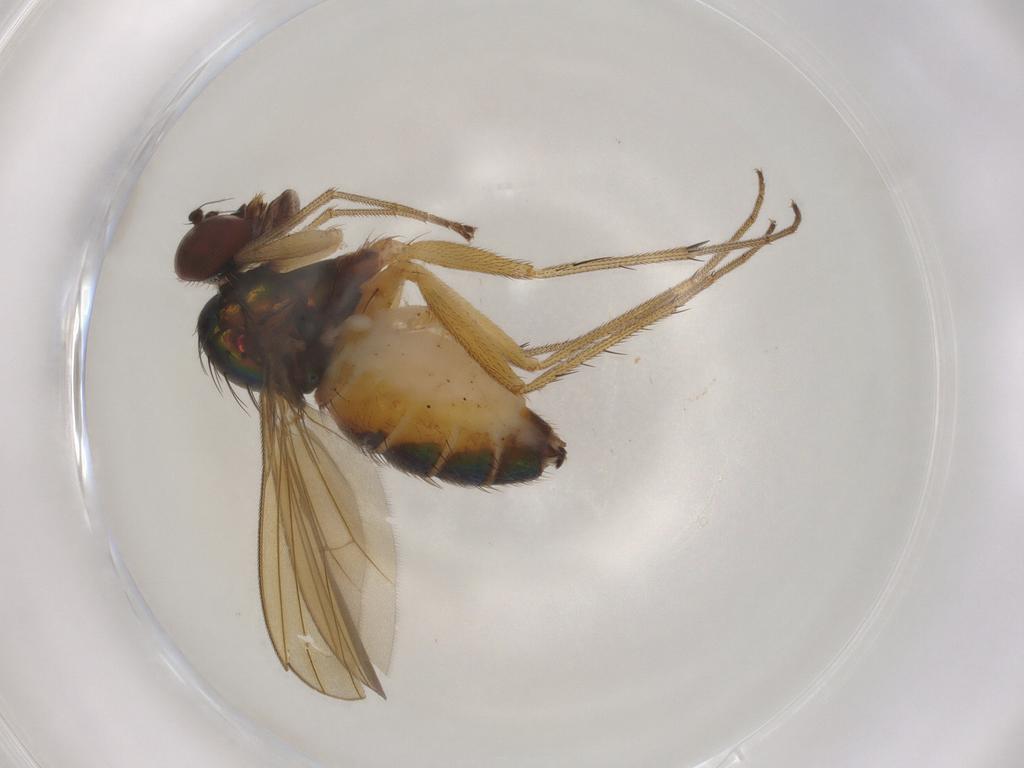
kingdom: Animalia
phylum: Arthropoda
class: Insecta
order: Diptera
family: Dolichopodidae
